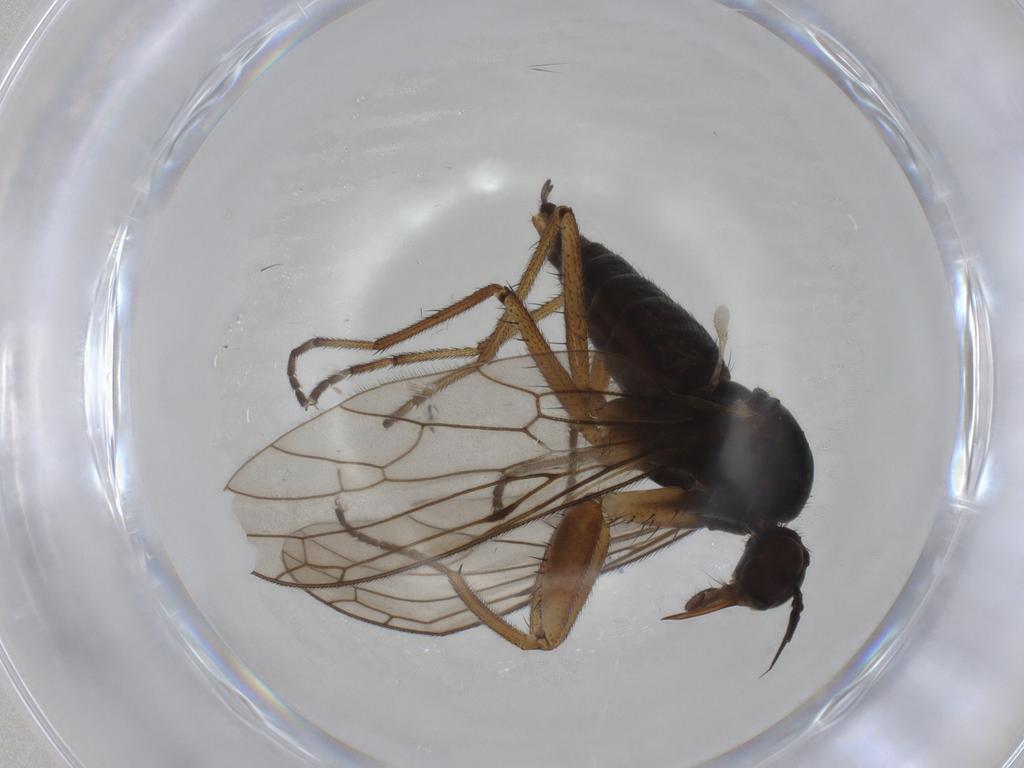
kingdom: Animalia
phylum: Arthropoda
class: Insecta
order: Diptera
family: Empididae
